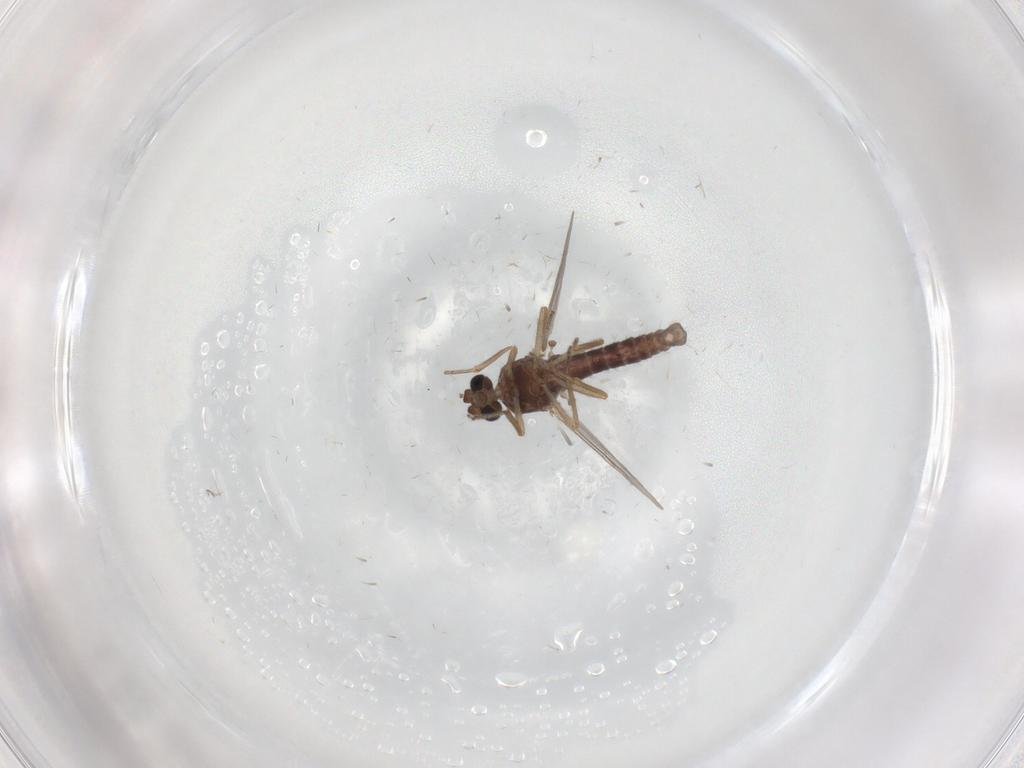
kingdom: Animalia
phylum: Arthropoda
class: Insecta
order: Diptera
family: Ceratopogonidae
